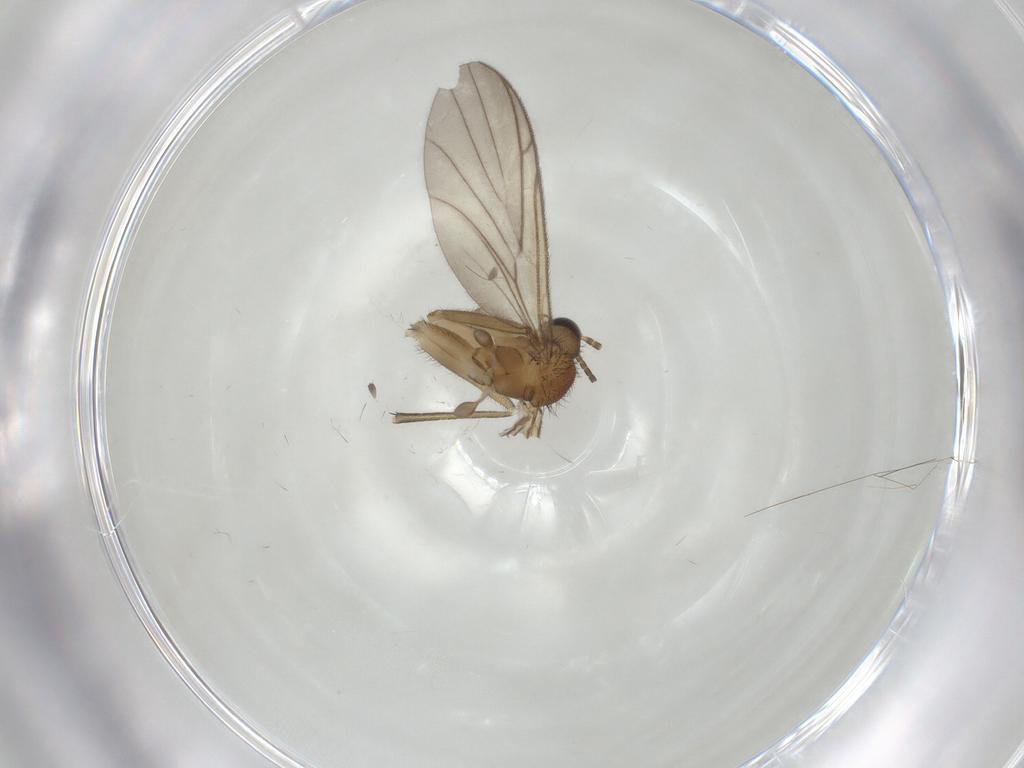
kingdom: Animalia
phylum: Arthropoda
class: Insecta
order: Diptera
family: Keroplatidae
